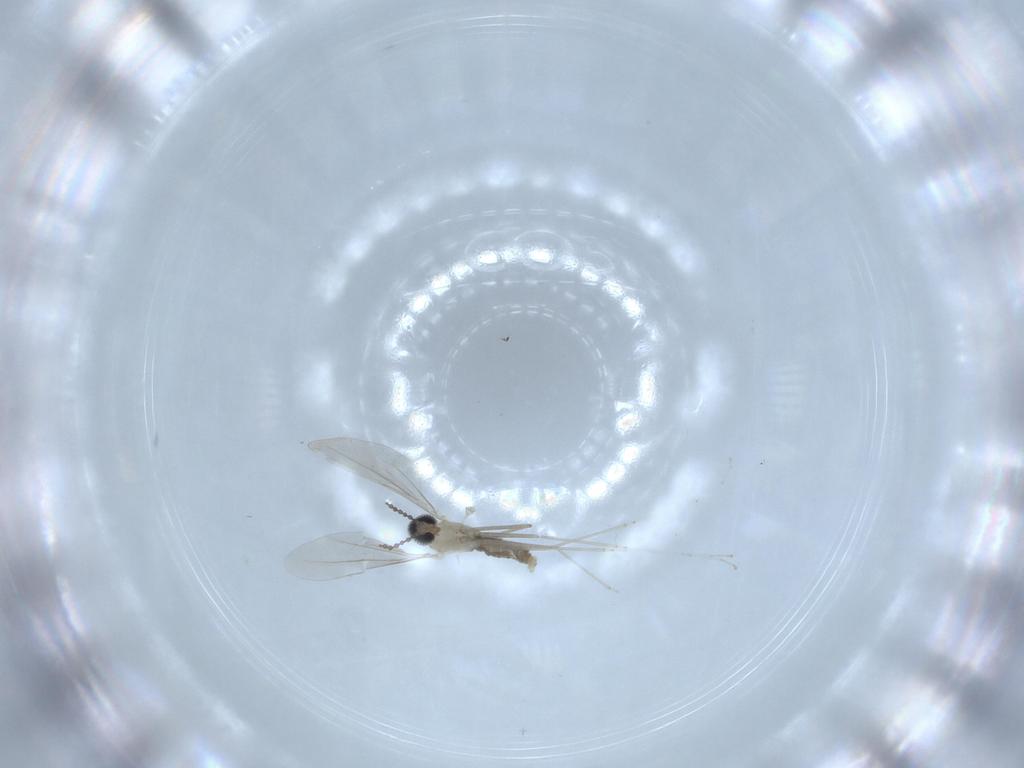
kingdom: Animalia
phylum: Arthropoda
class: Insecta
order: Diptera
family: Cecidomyiidae
